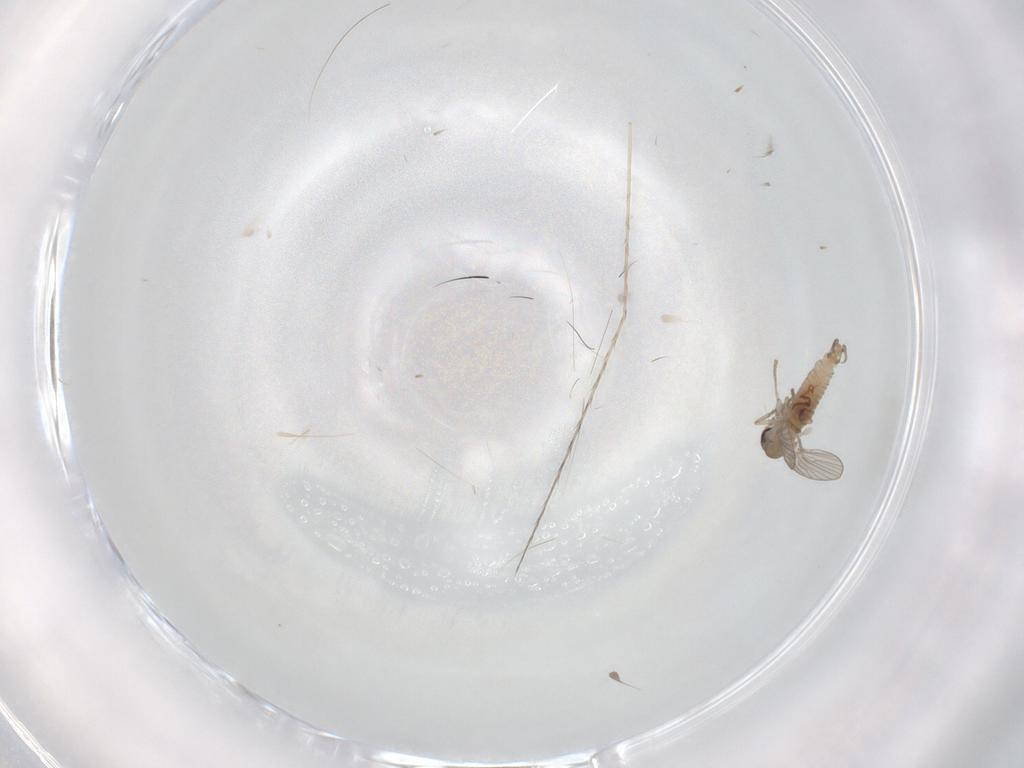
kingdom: Animalia
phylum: Arthropoda
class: Insecta
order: Diptera
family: Psychodidae
